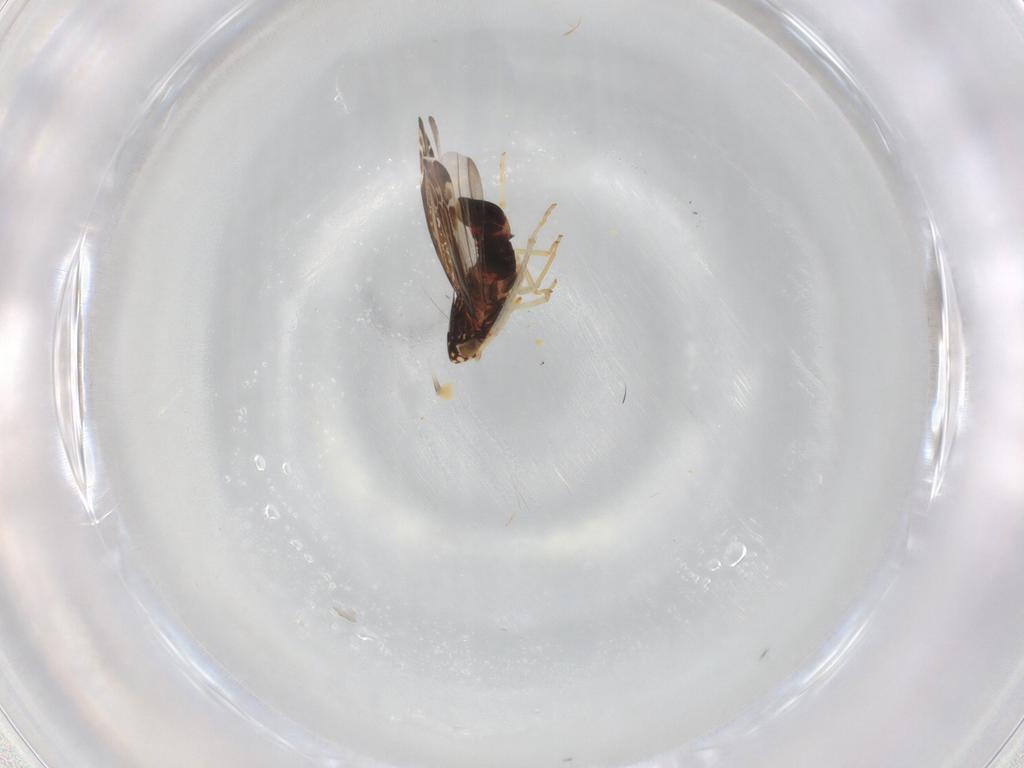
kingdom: Animalia
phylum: Arthropoda
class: Insecta
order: Hemiptera
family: Cicadellidae
